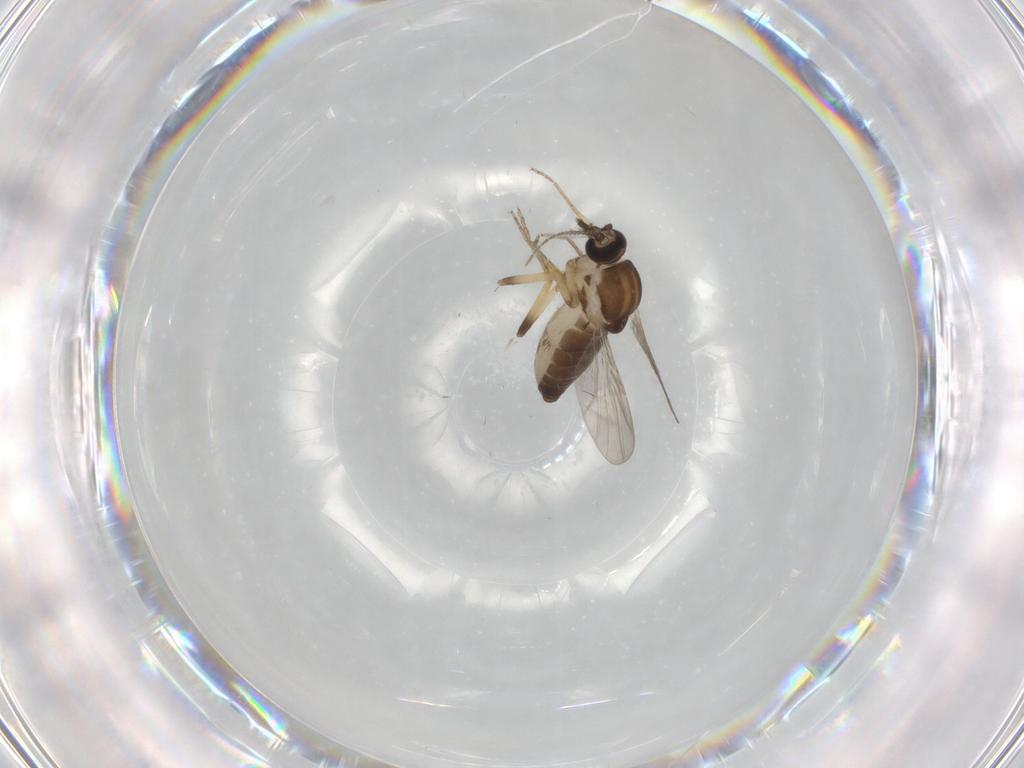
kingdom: Animalia
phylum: Arthropoda
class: Insecta
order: Diptera
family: Ceratopogonidae
